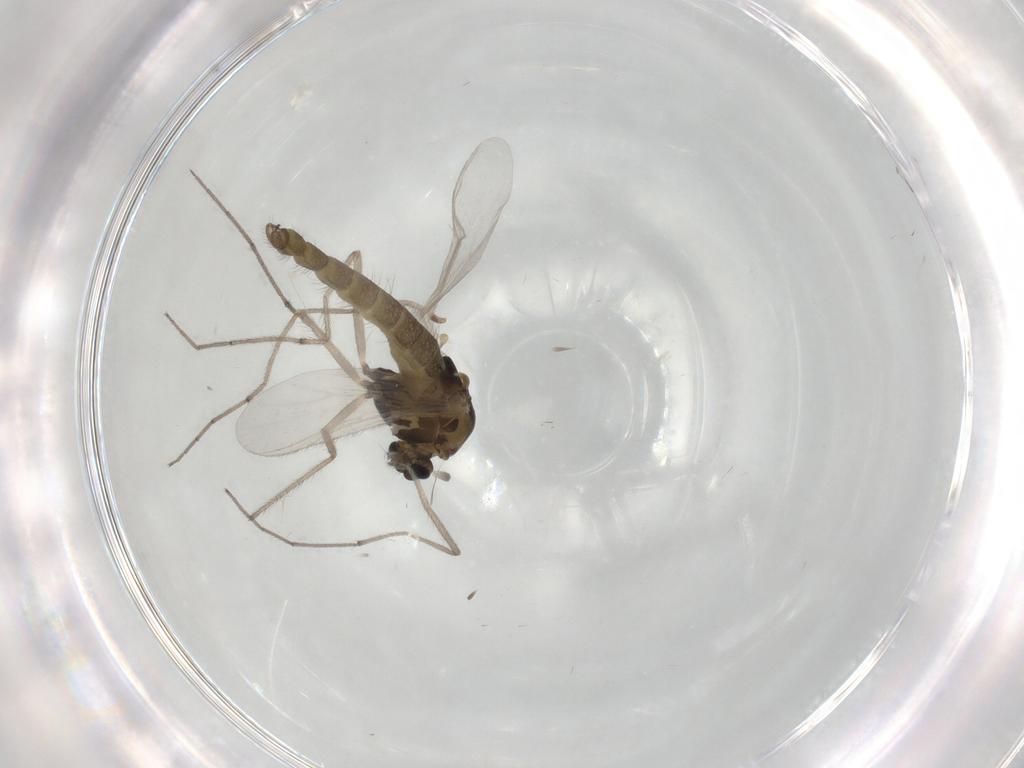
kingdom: Animalia
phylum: Arthropoda
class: Insecta
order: Diptera
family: Chironomidae
